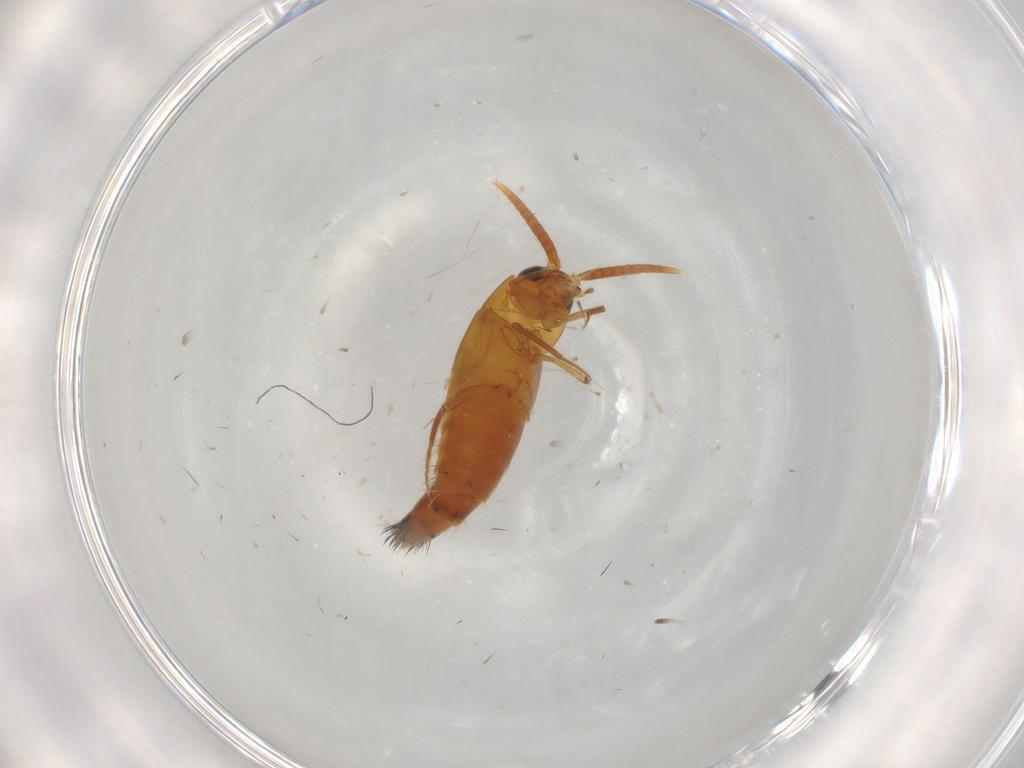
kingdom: Animalia
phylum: Arthropoda
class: Insecta
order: Coleoptera
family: Staphylinidae
